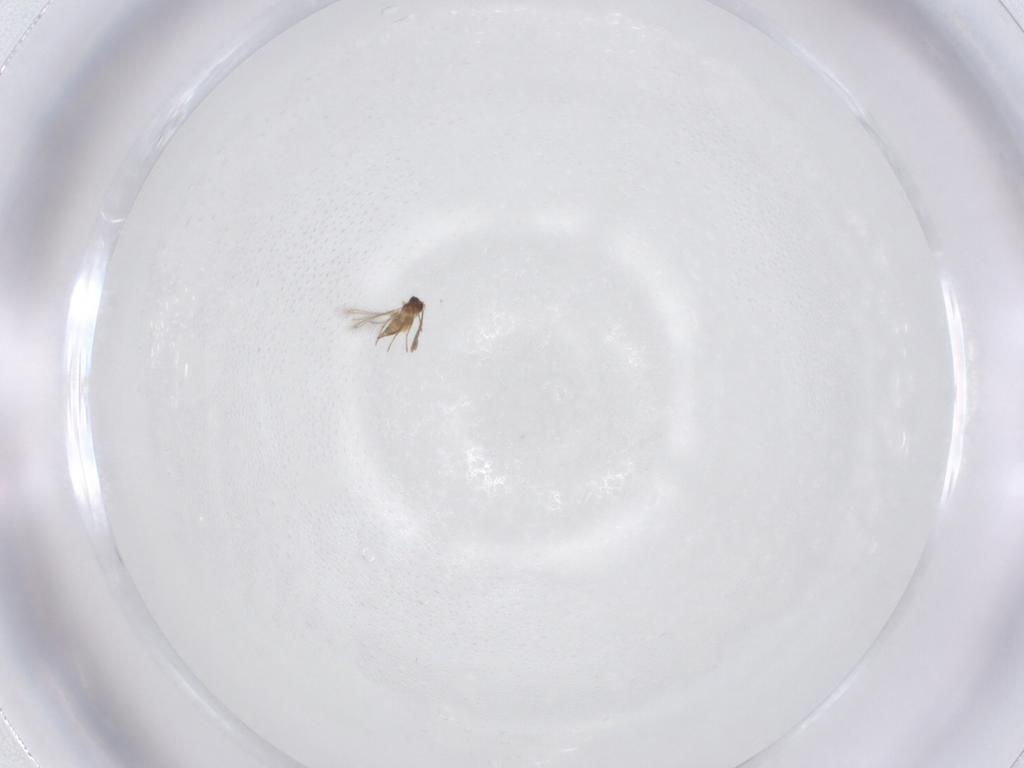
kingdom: Animalia
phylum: Arthropoda
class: Insecta
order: Hymenoptera
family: Mymaridae
